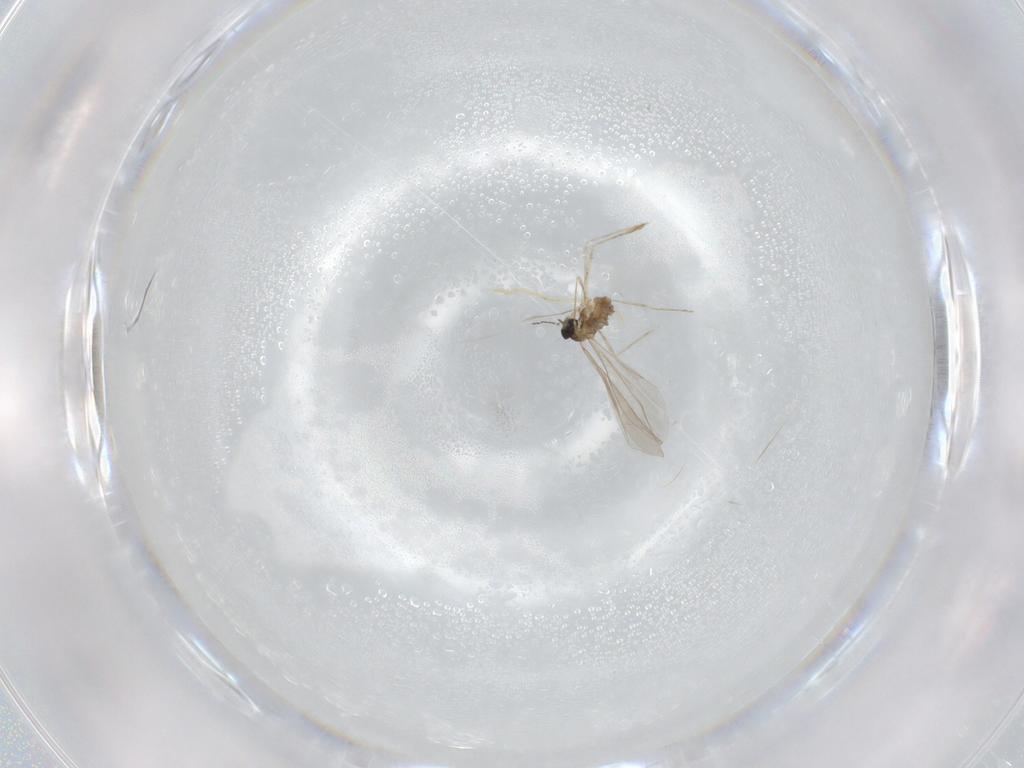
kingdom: Animalia
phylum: Arthropoda
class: Insecta
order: Diptera
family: Cecidomyiidae
